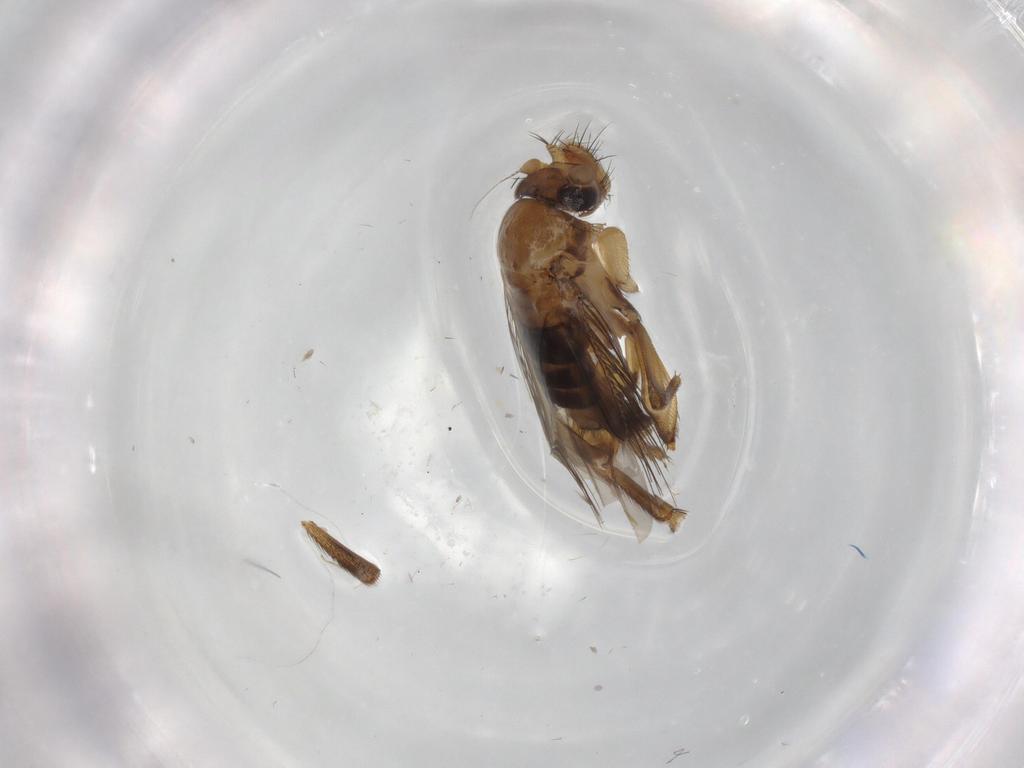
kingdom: Animalia
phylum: Arthropoda
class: Insecta
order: Diptera
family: Phoridae
